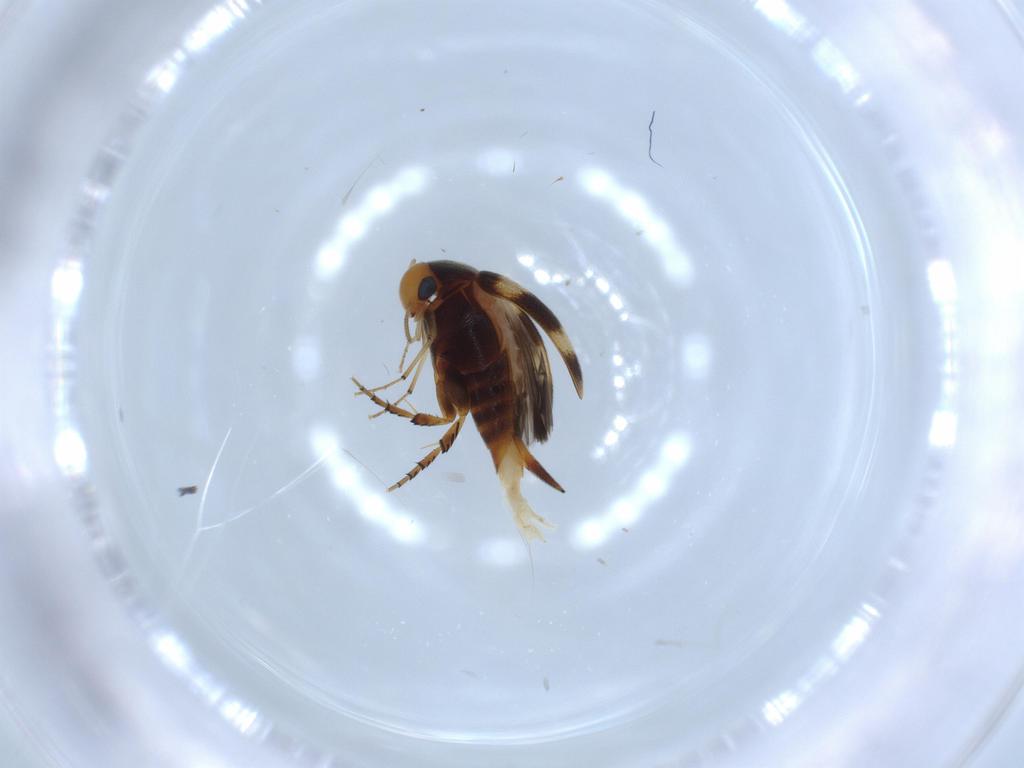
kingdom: Animalia
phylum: Arthropoda
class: Insecta
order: Coleoptera
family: Mordellidae
